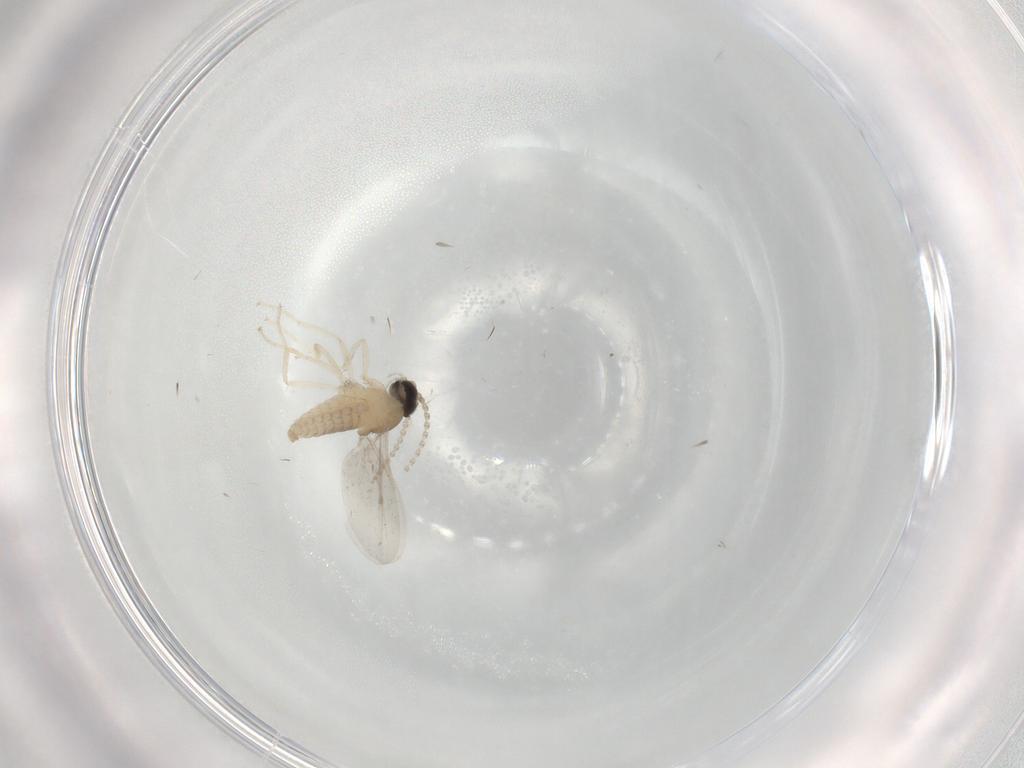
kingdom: Animalia
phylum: Arthropoda
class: Insecta
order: Diptera
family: Cecidomyiidae
